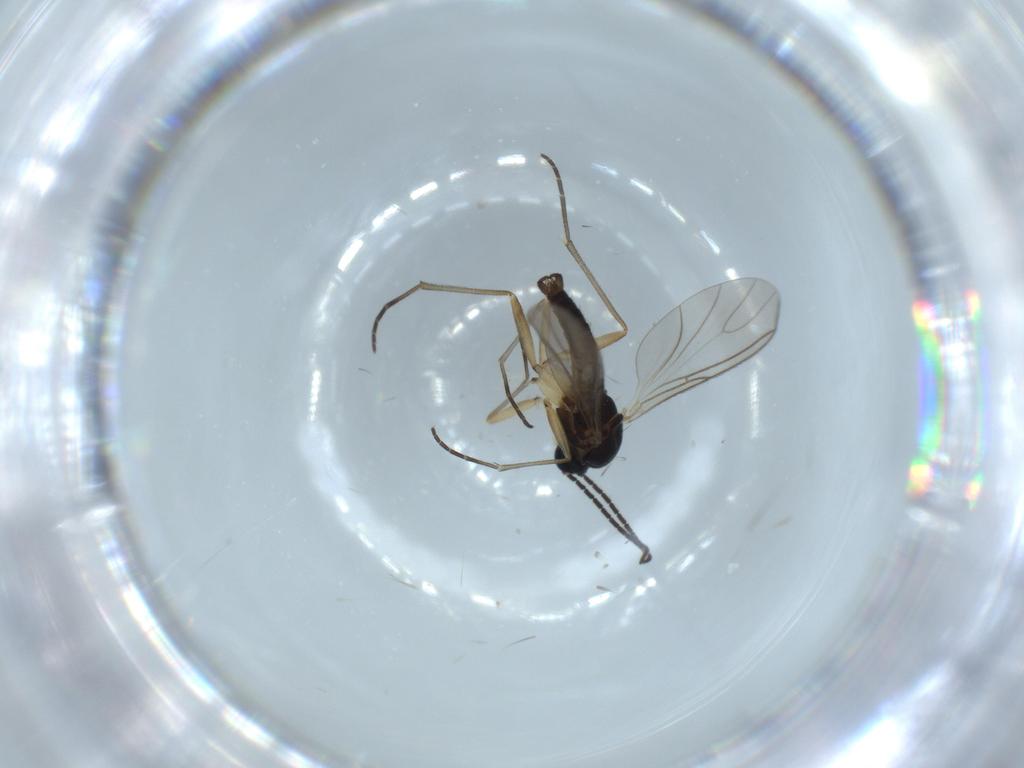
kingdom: Animalia
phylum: Arthropoda
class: Insecta
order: Diptera
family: Sciaridae
